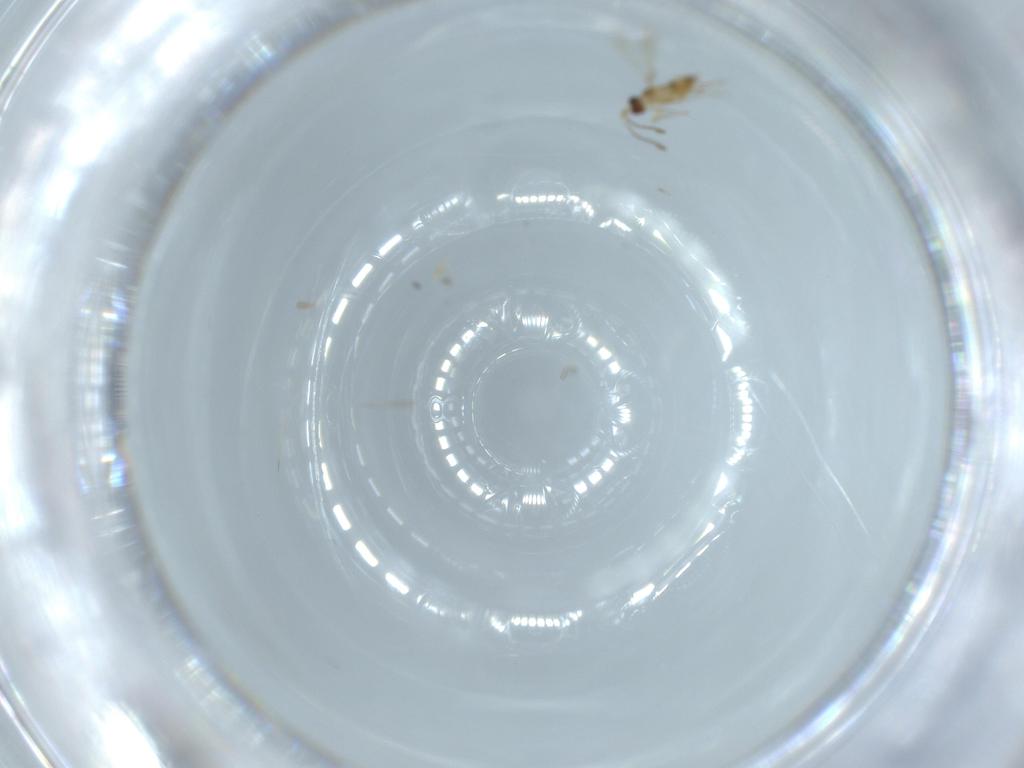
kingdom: Animalia
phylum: Arthropoda
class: Insecta
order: Hymenoptera
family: Mymaridae
